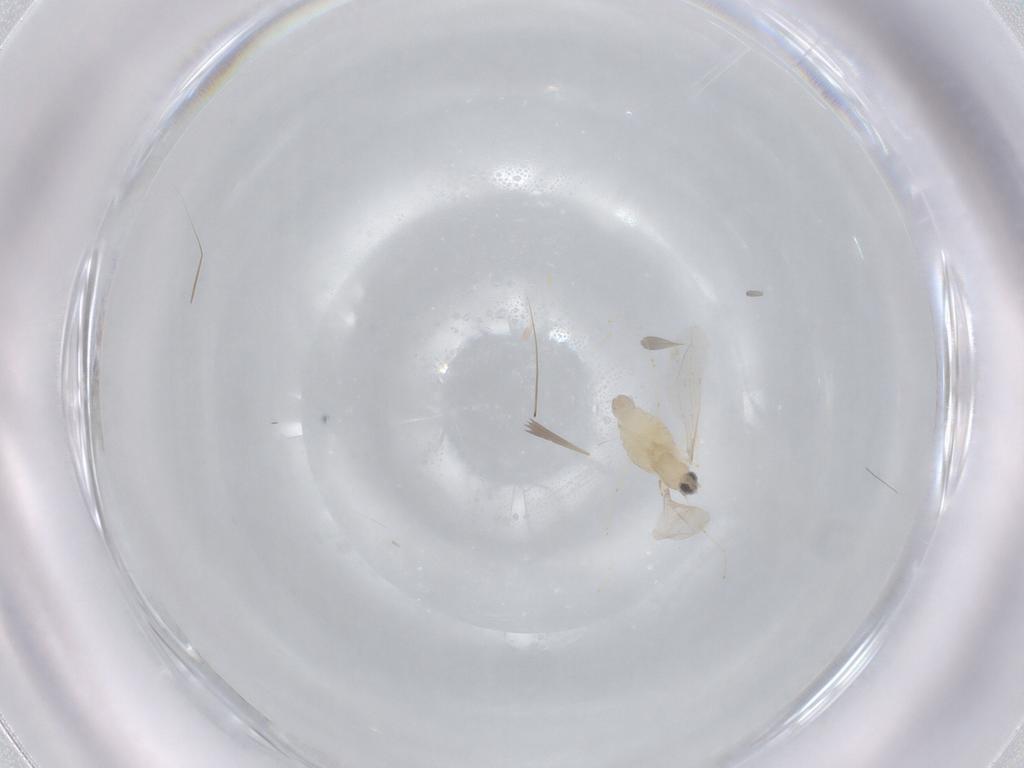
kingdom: Animalia
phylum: Arthropoda
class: Insecta
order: Diptera
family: Cecidomyiidae
